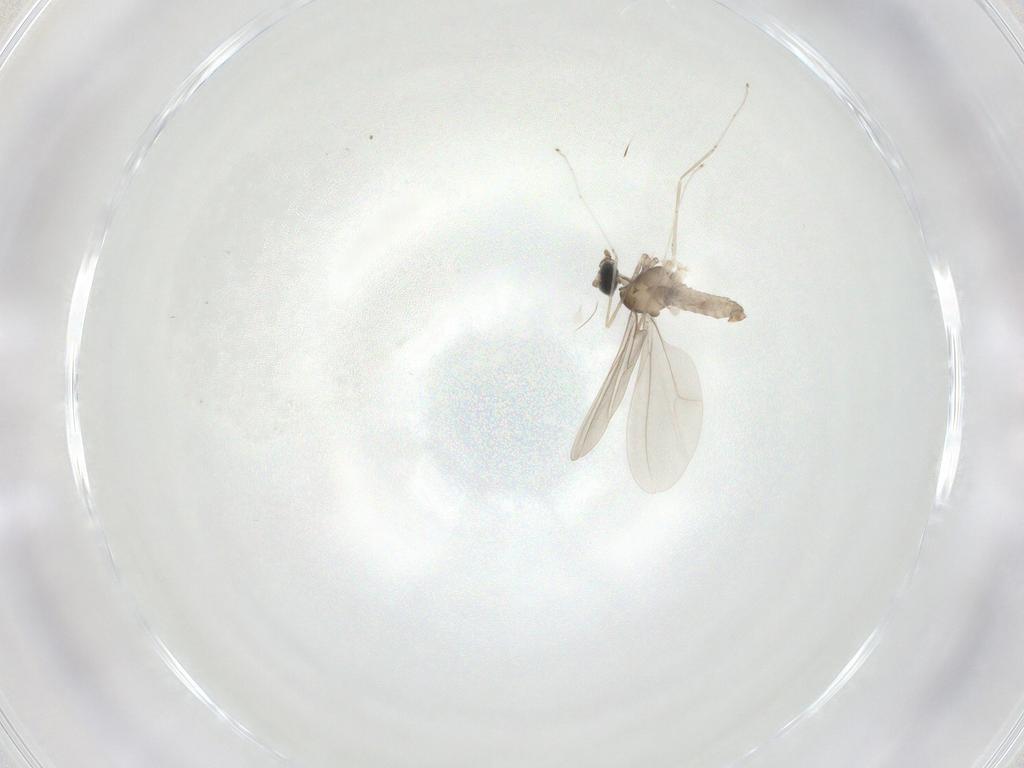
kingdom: Animalia
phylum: Arthropoda
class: Insecta
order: Diptera
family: Cecidomyiidae
